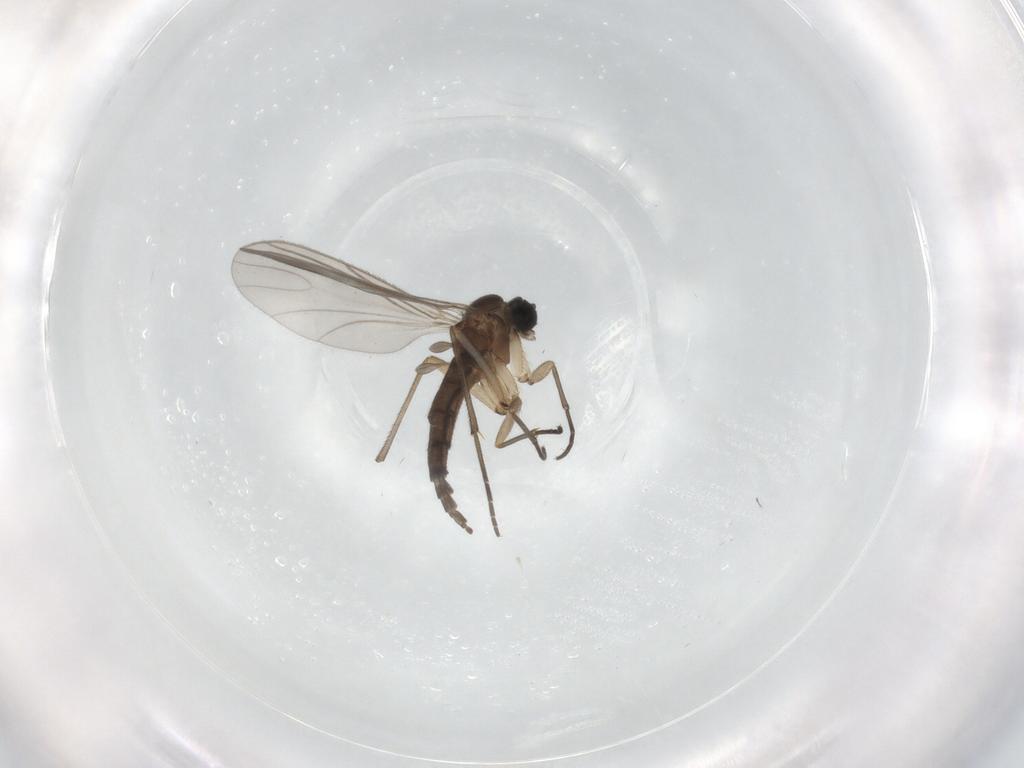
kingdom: Animalia
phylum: Arthropoda
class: Insecta
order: Diptera
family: Sciaridae
